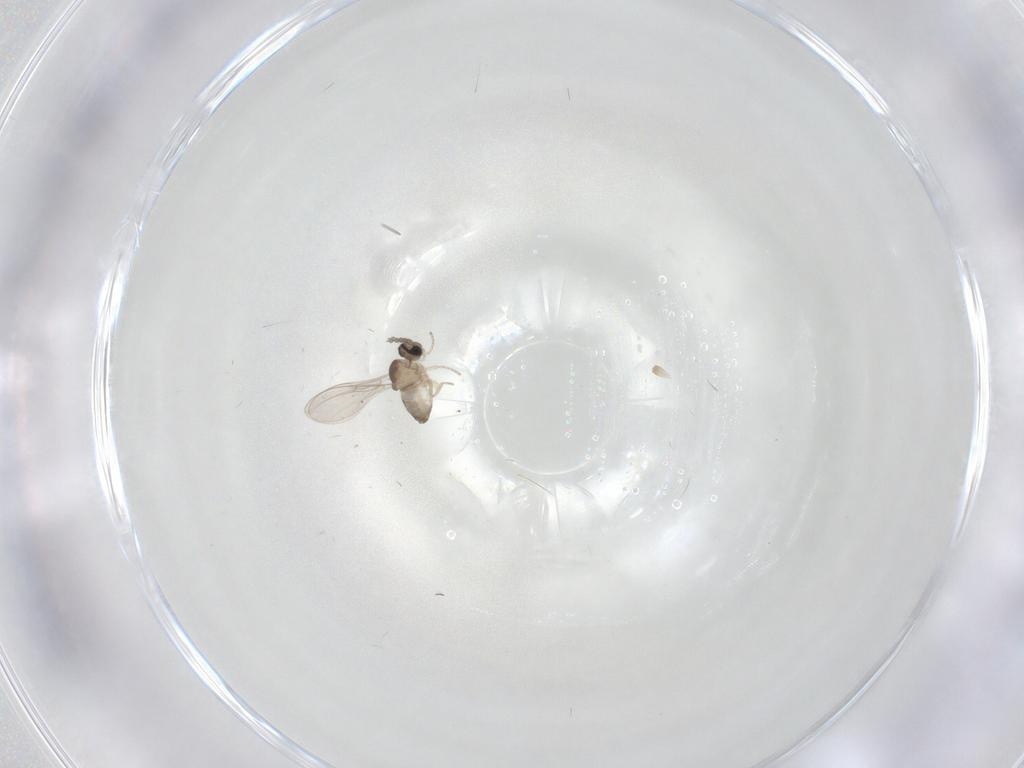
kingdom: Animalia
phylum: Arthropoda
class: Insecta
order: Diptera
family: Cecidomyiidae
